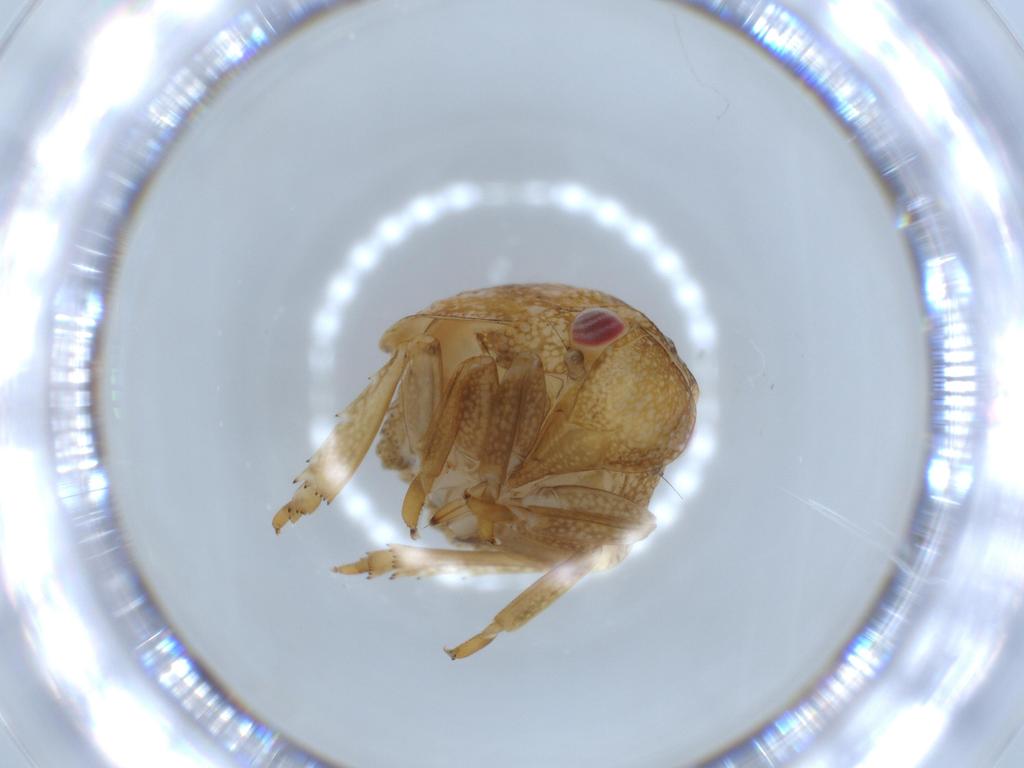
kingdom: Animalia
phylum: Arthropoda
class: Insecta
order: Hemiptera
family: Acanaloniidae
